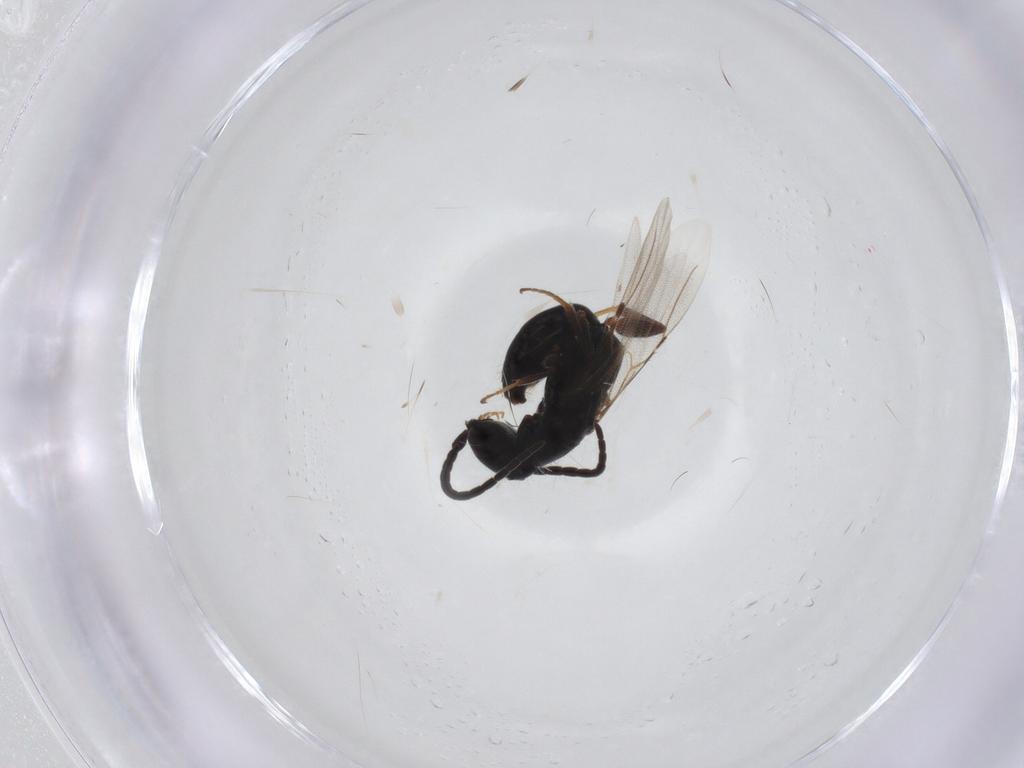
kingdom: Animalia
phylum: Arthropoda
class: Insecta
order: Hymenoptera
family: Bethylidae
